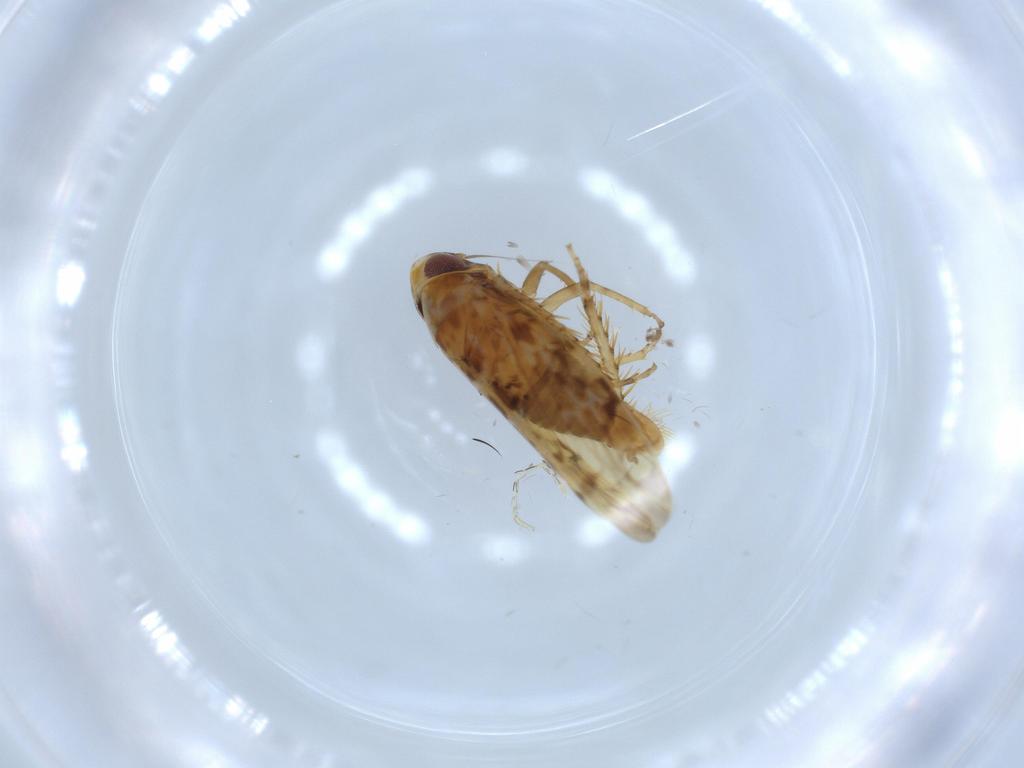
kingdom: Animalia
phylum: Arthropoda
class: Insecta
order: Hemiptera
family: Cicadellidae
